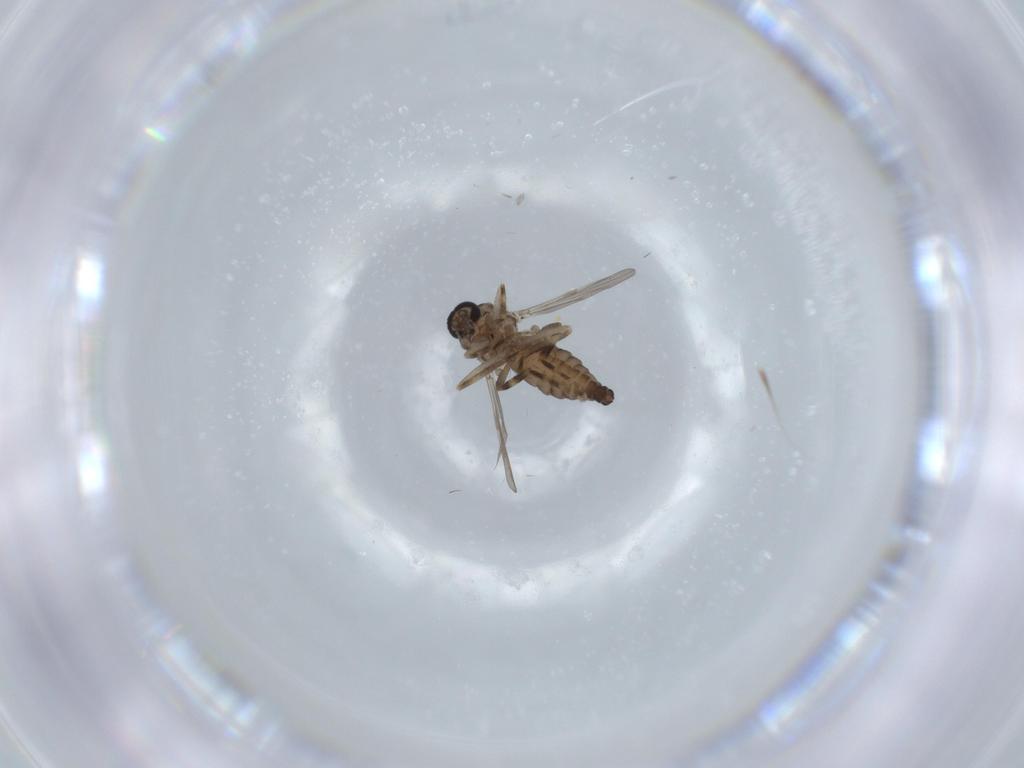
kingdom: Animalia
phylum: Arthropoda
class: Insecta
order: Diptera
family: Ceratopogonidae
